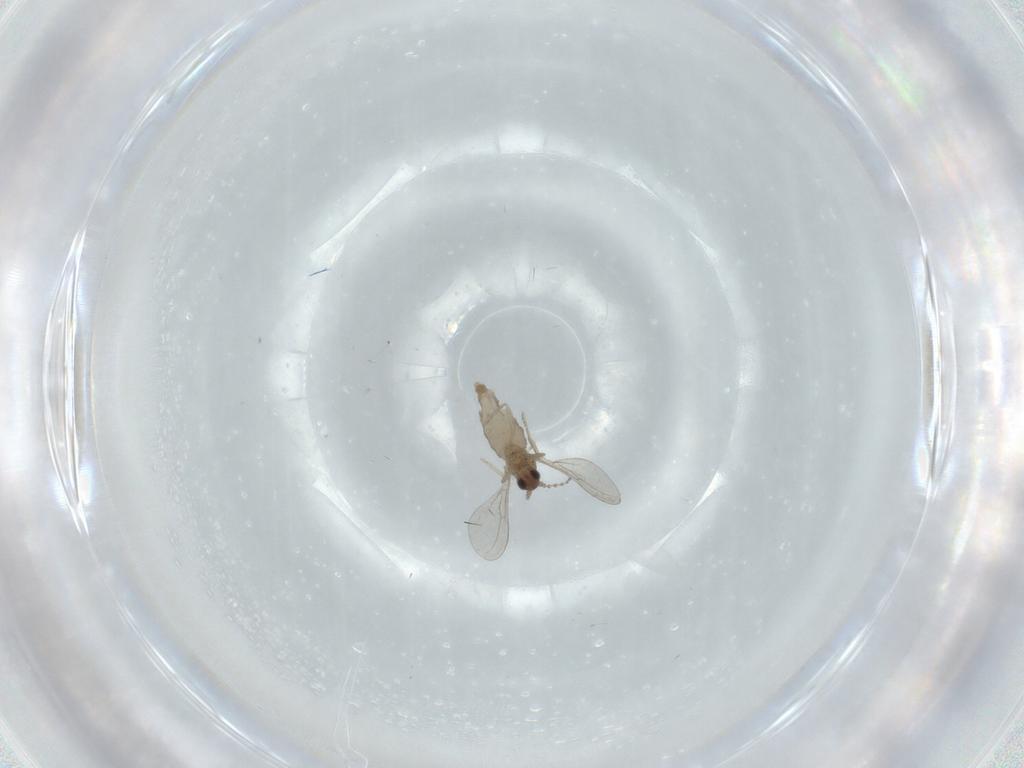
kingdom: Animalia
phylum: Arthropoda
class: Insecta
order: Diptera
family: Cecidomyiidae
